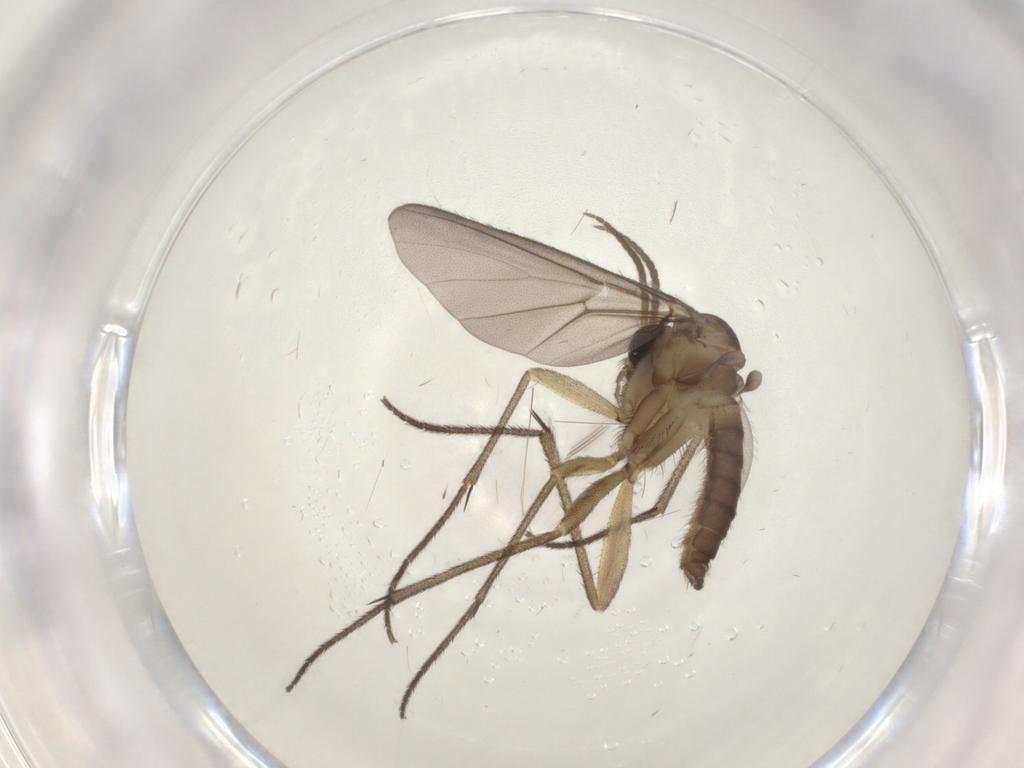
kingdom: Animalia
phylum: Arthropoda
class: Insecta
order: Diptera
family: Diadocidiidae
